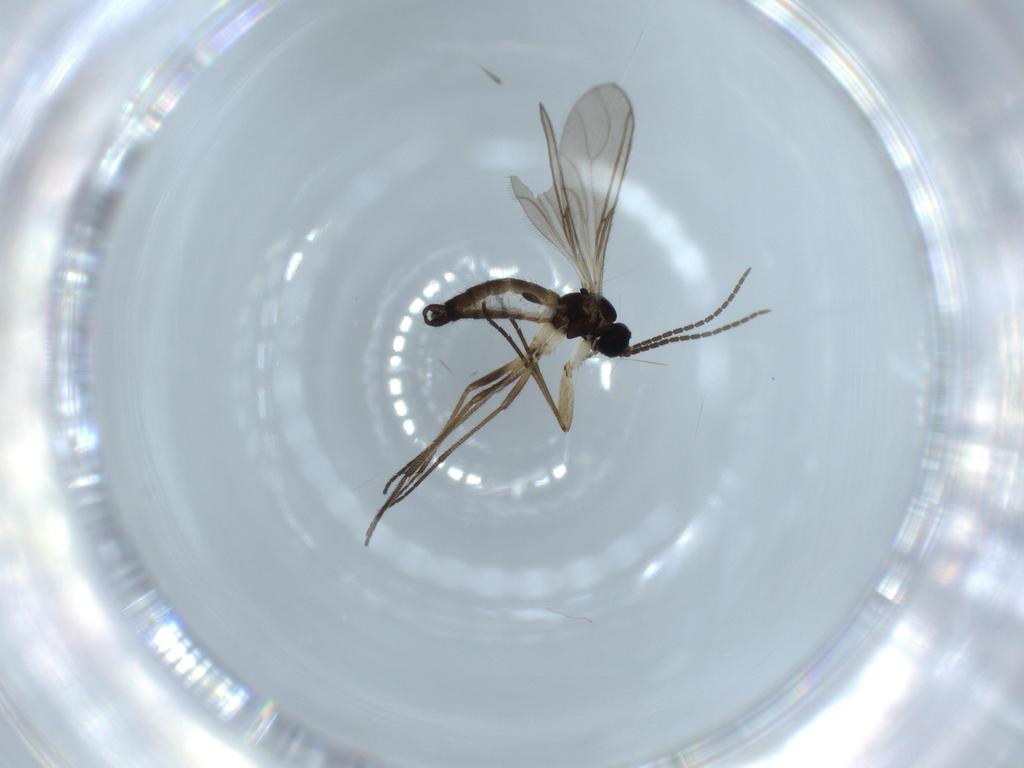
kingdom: Animalia
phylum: Arthropoda
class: Insecta
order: Diptera
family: Sciaridae
